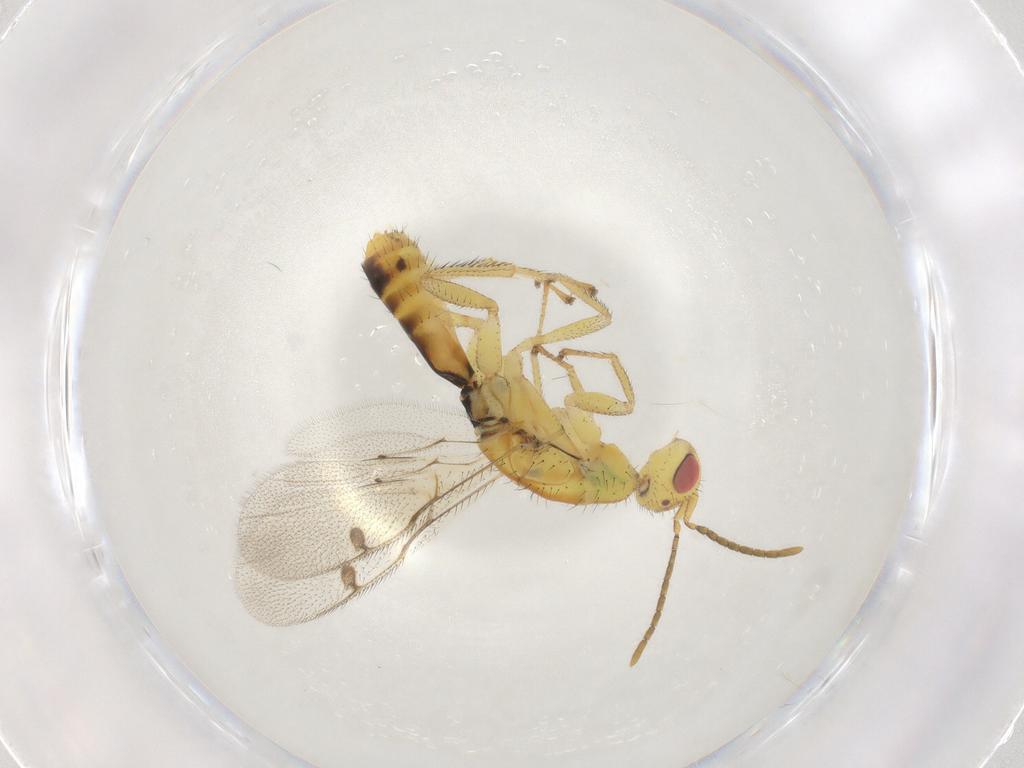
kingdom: Animalia
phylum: Arthropoda
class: Insecta
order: Hymenoptera
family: Megastigmidae
